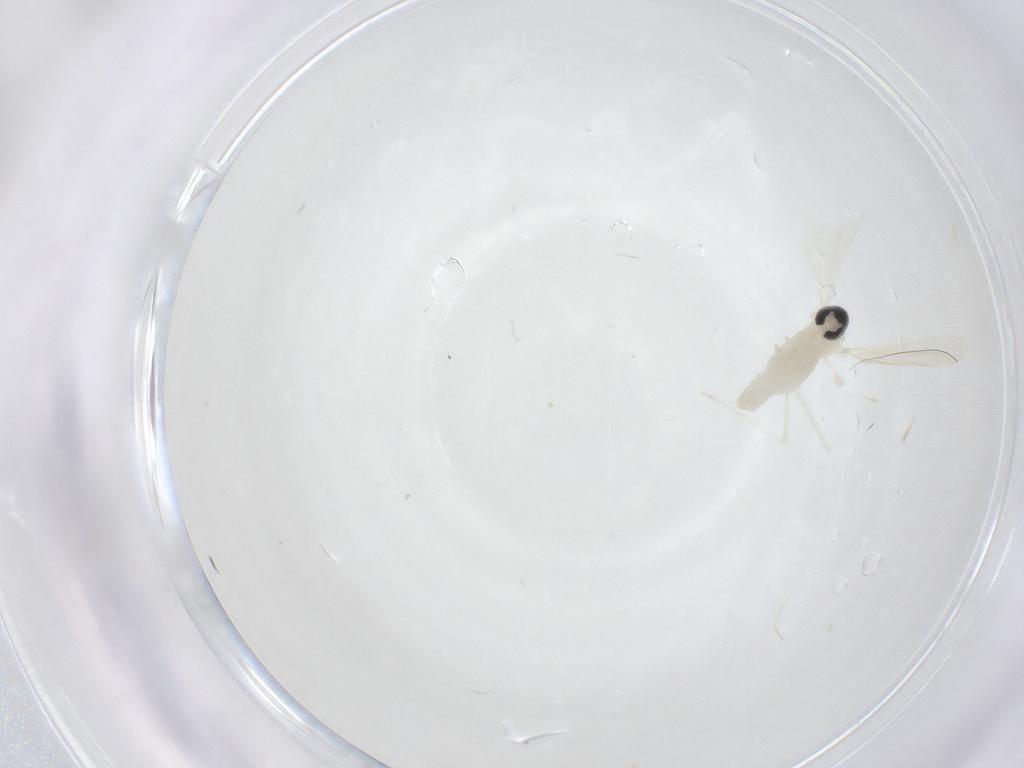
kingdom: Animalia
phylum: Arthropoda
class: Insecta
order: Diptera
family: Cecidomyiidae
